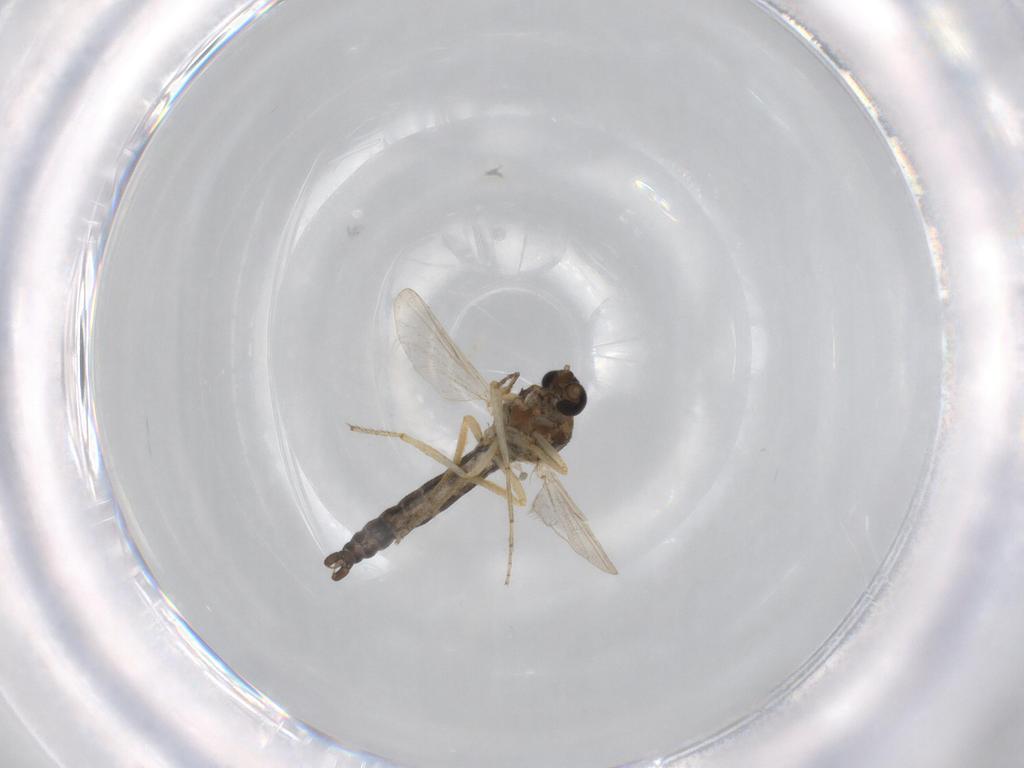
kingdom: Animalia
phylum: Arthropoda
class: Insecta
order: Diptera
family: Ceratopogonidae
